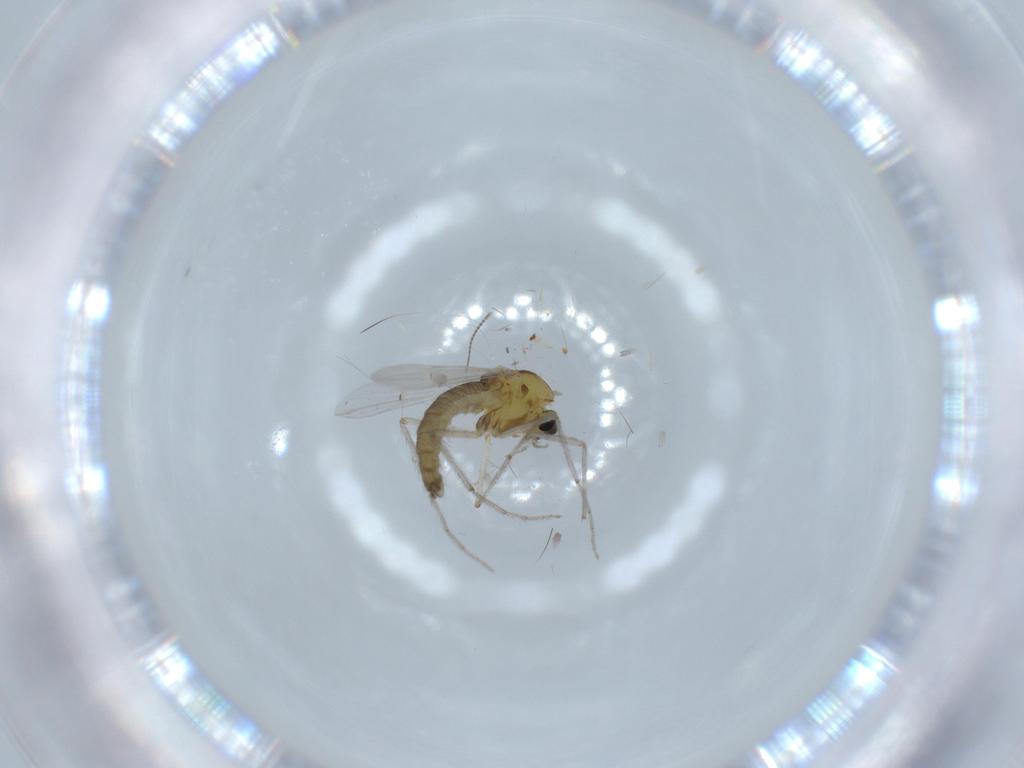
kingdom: Animalia
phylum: Arthropoda
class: Insecta
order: Diptera
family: Chironomidae
